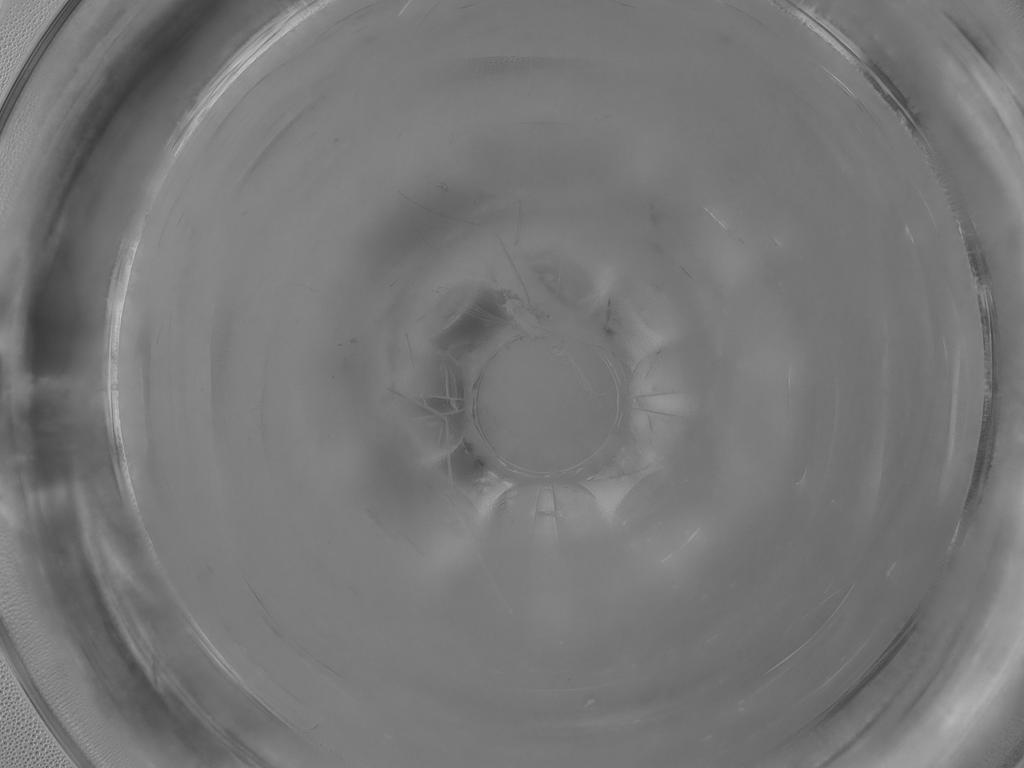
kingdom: Animalia
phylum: Arthropoda
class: Insecta
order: Diptera
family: Cecidomyiidae
